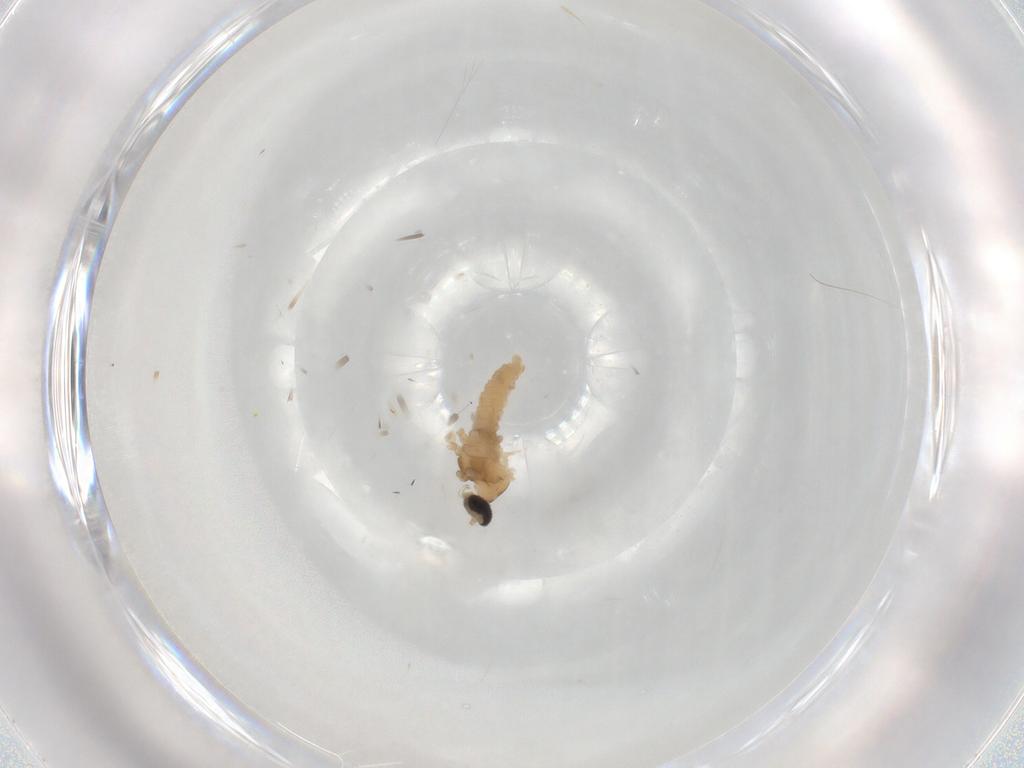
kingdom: Animalia
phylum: Arthropoda
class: Insecta
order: Diptera
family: Cecidomyiidae
